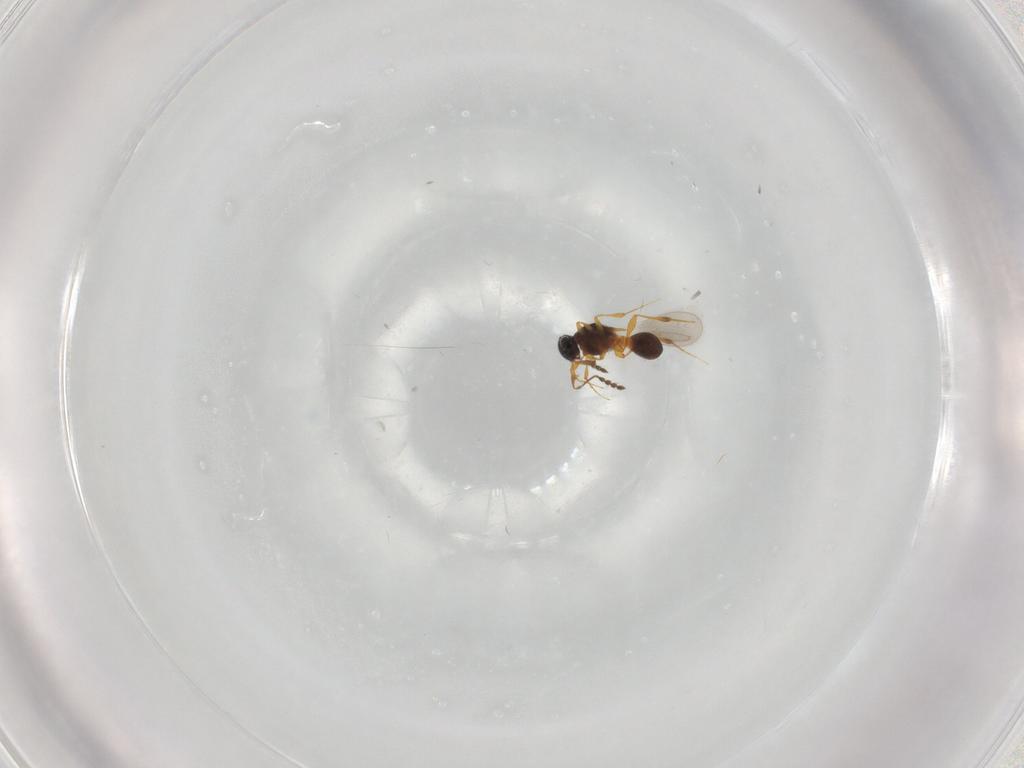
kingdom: Animalia
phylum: Arthropoda
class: Insecta
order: Hymenoptera
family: Platygastridae
